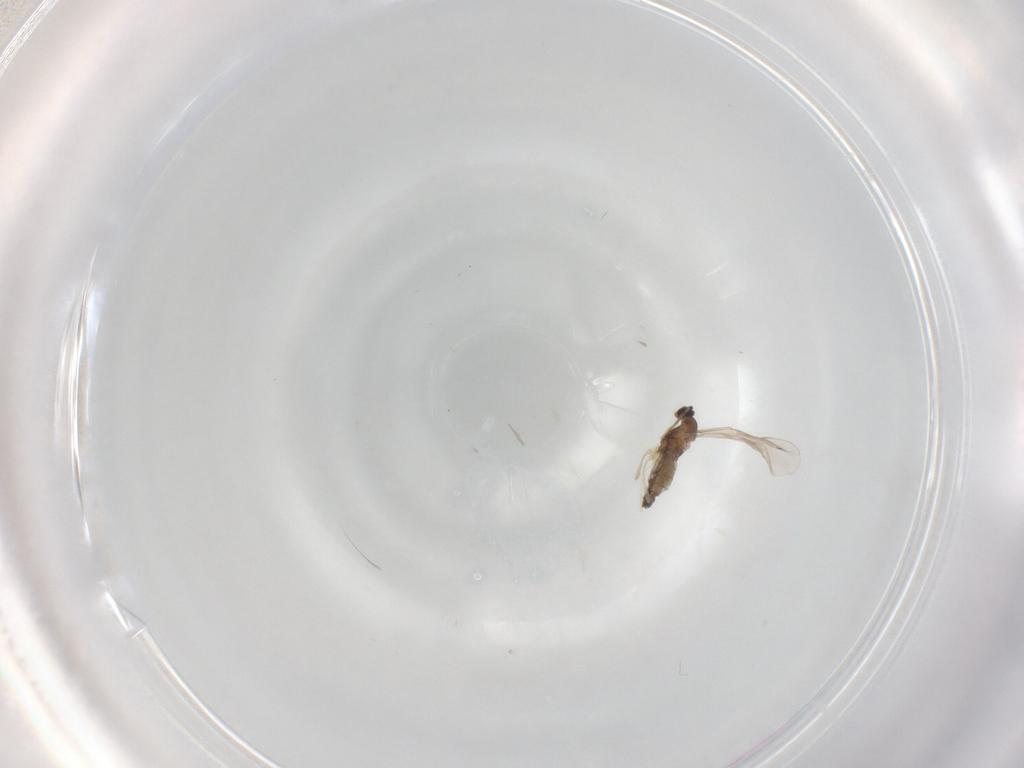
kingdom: Animalia
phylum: Arthropoda
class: Insecta
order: Diptera
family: Cecidomyiidae
